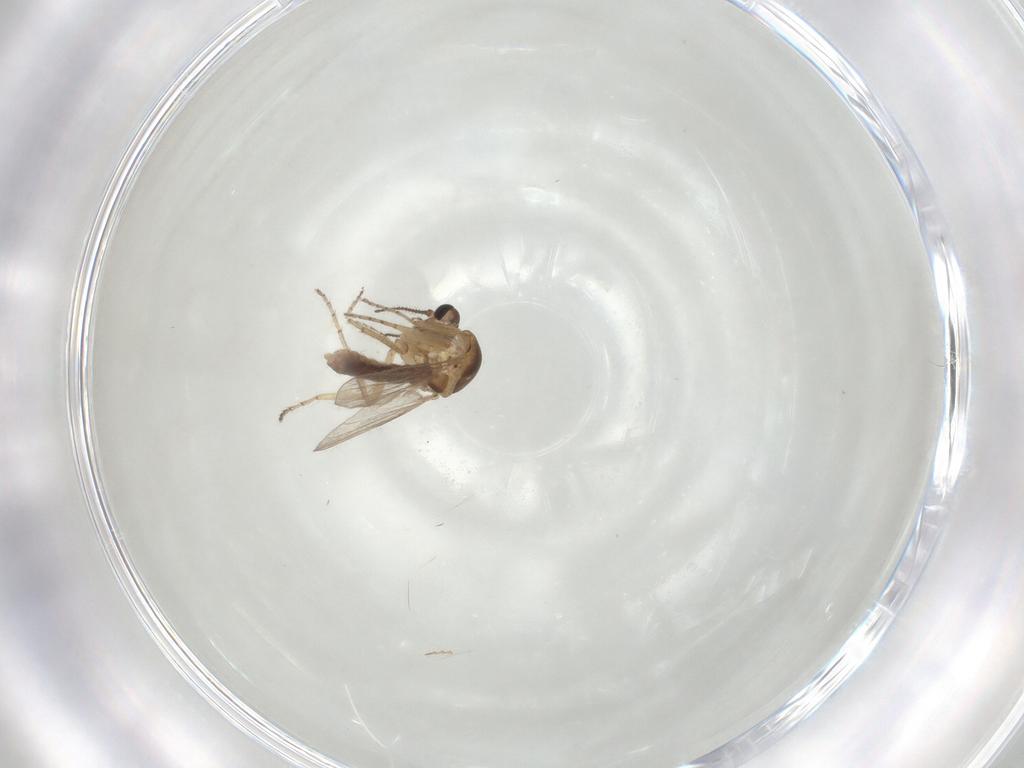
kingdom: Animalia
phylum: Arthropoda
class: Insecta
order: Diptera
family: Ceratopogonidae
